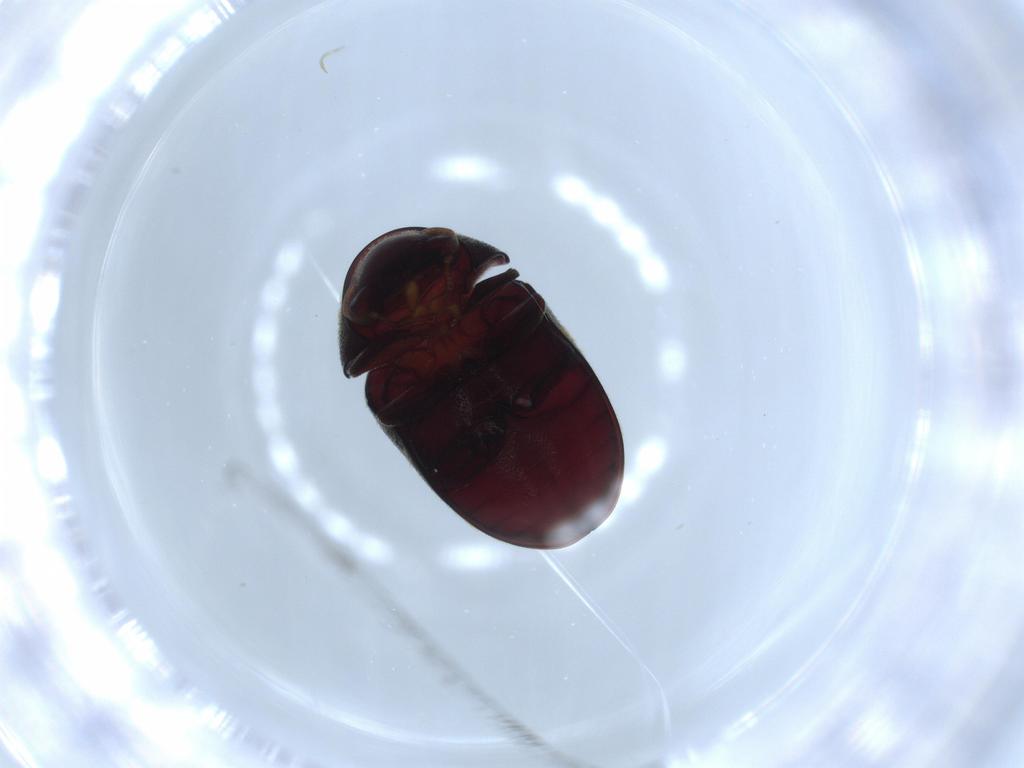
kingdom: Animalia
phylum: Arthropoda
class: Insecta
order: Coleoptera
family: Ptinidae
